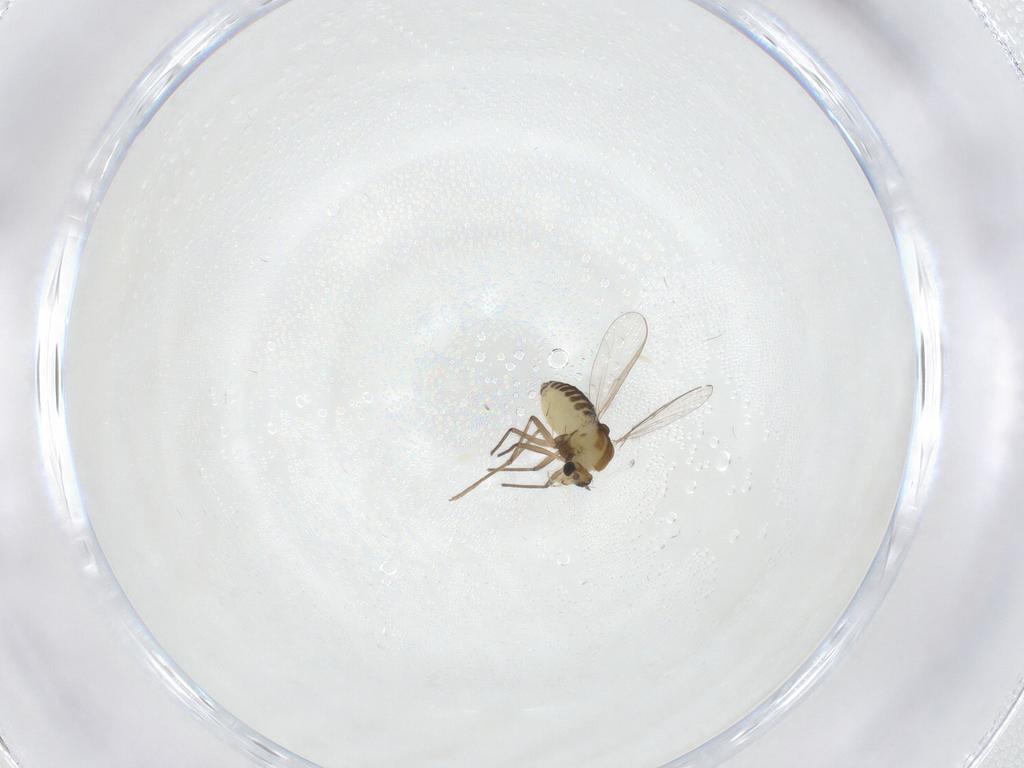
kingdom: Animalia
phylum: Arthropoda
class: Insecta
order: Diptera
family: Chironomidae
